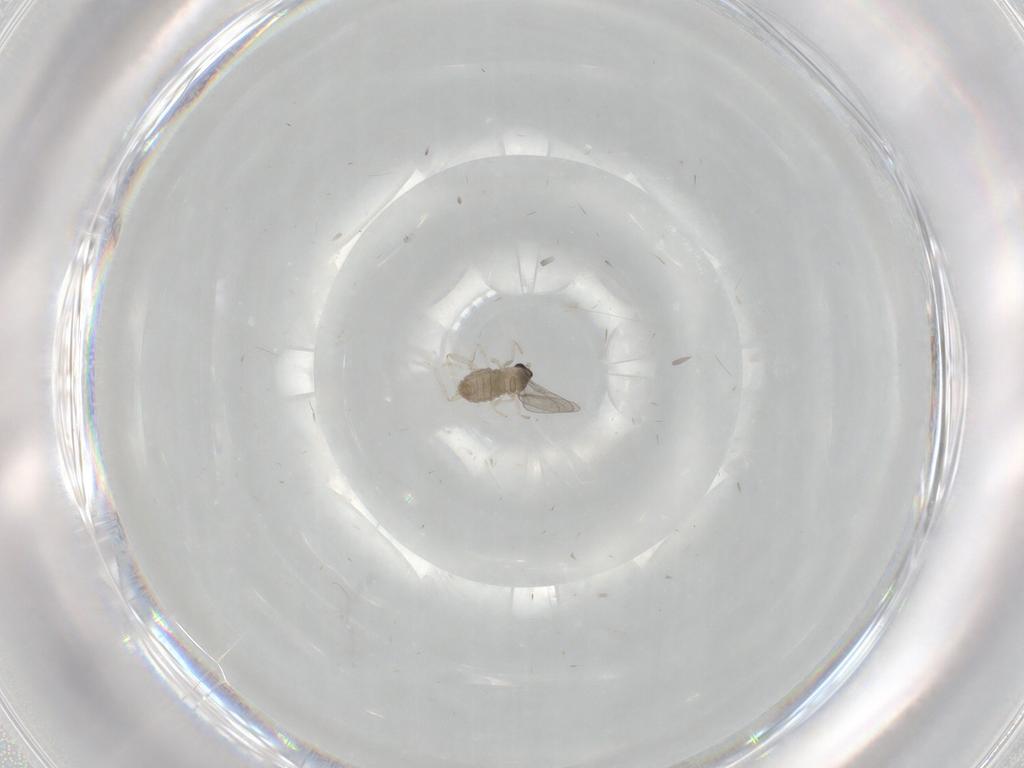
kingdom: Animalia
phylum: Arthropoda
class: Insecta
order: Diptera
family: Cecidomyiidae
